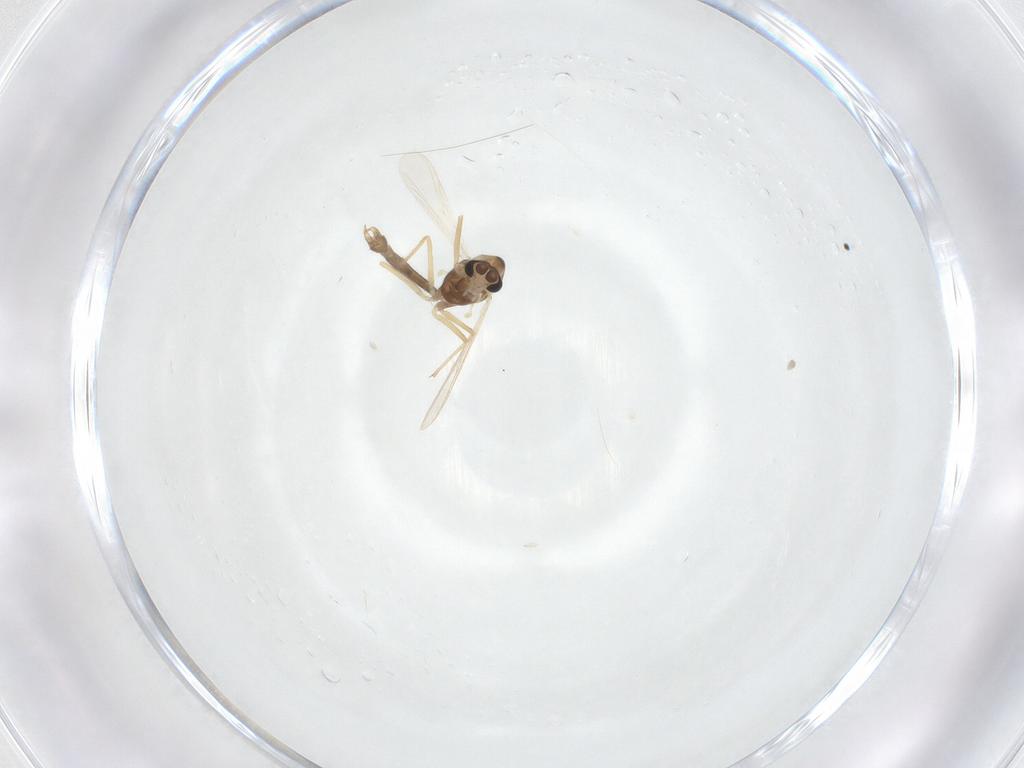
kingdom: Animalia
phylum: Arthropoda
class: Insecta
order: Diptera
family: Chironomidae
